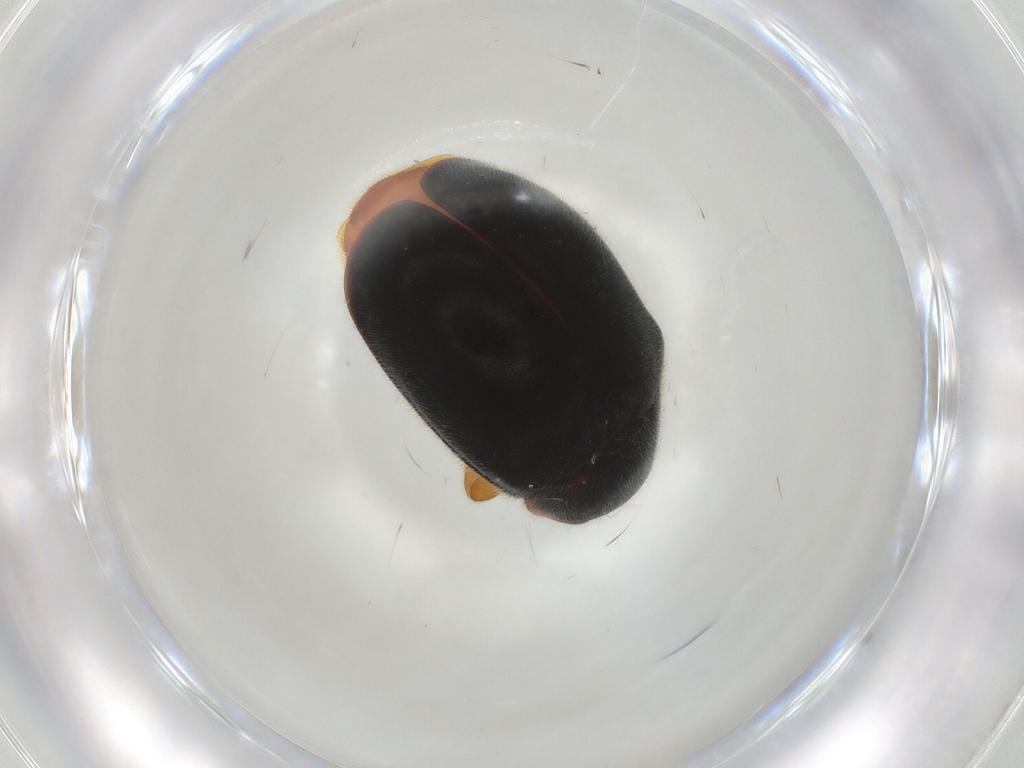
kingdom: Animalia
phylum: Arthropoda
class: Insecta
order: Coleoptera
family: Coccinellidae
